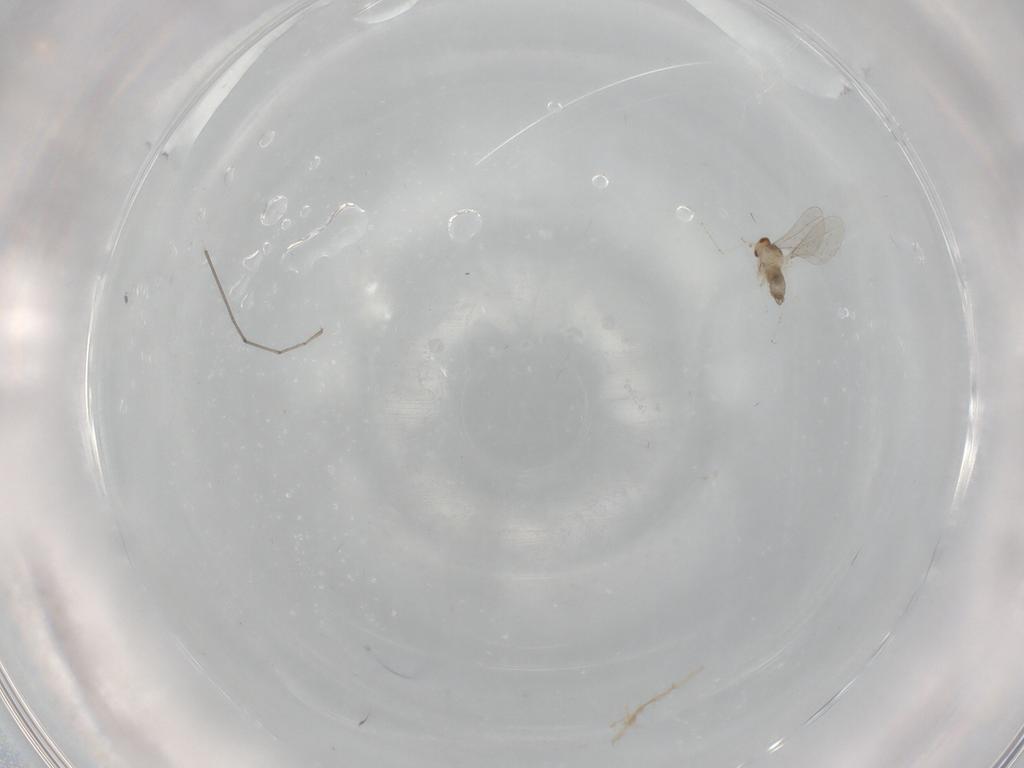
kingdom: Animalia
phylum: Arthropoda
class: Insecta
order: Diptera
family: Cecidomyiidae
